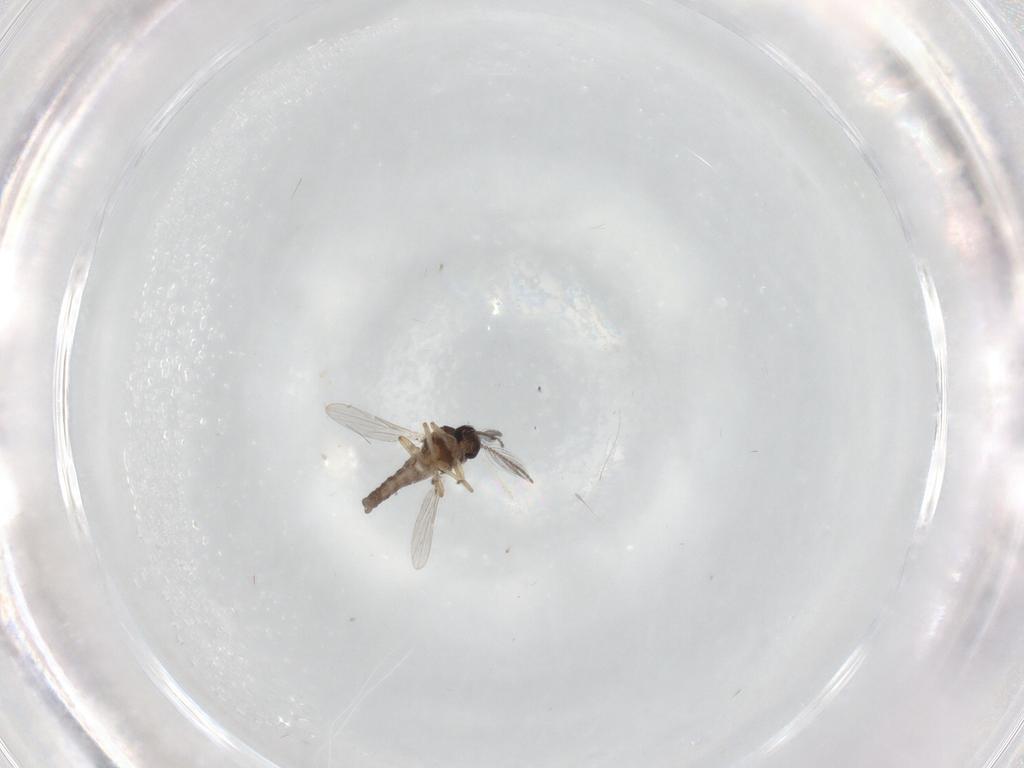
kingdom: Animalia
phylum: Arthropoda
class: Insecta
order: Diptera
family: Ceratopogonidae
